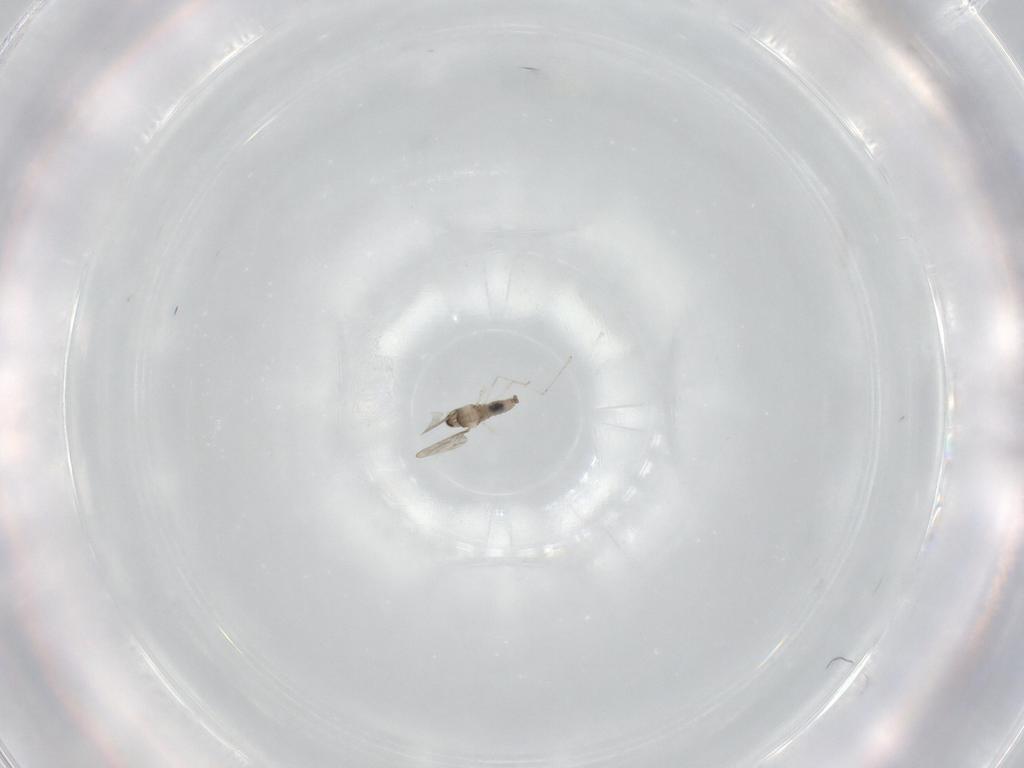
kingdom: Animalia
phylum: Arthropoda
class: Insecta
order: Diptera
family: Cecidomyiidae
